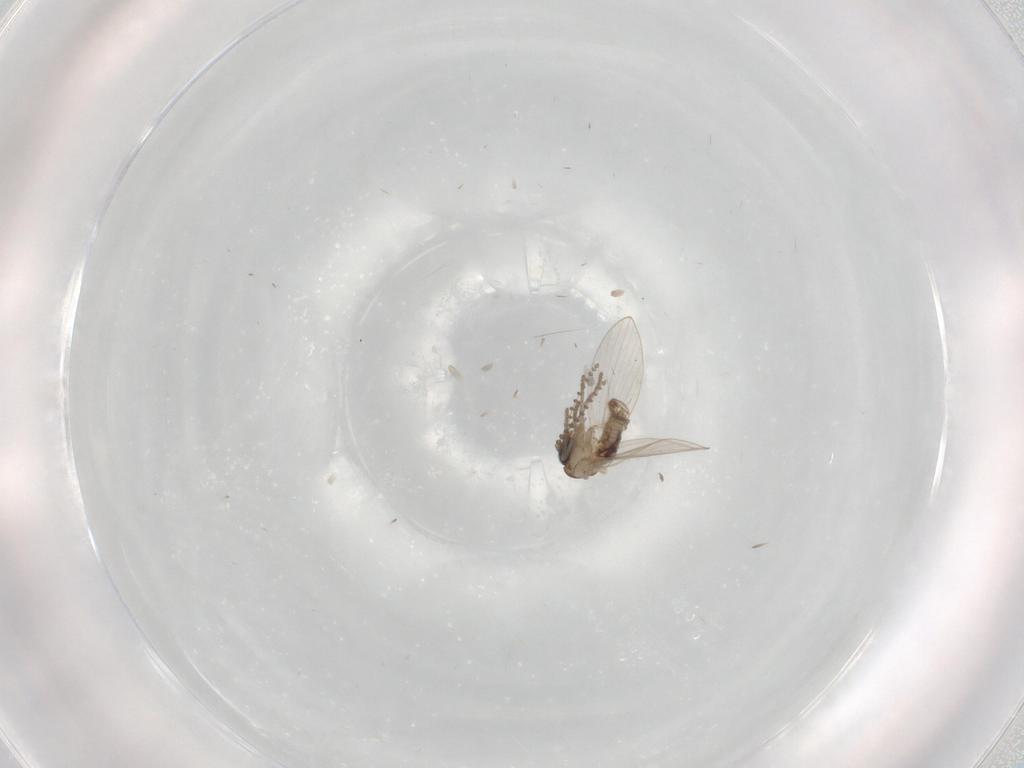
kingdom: Animalia
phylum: Arthropoda
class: Insecta
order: Diptera
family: Psychodidae
